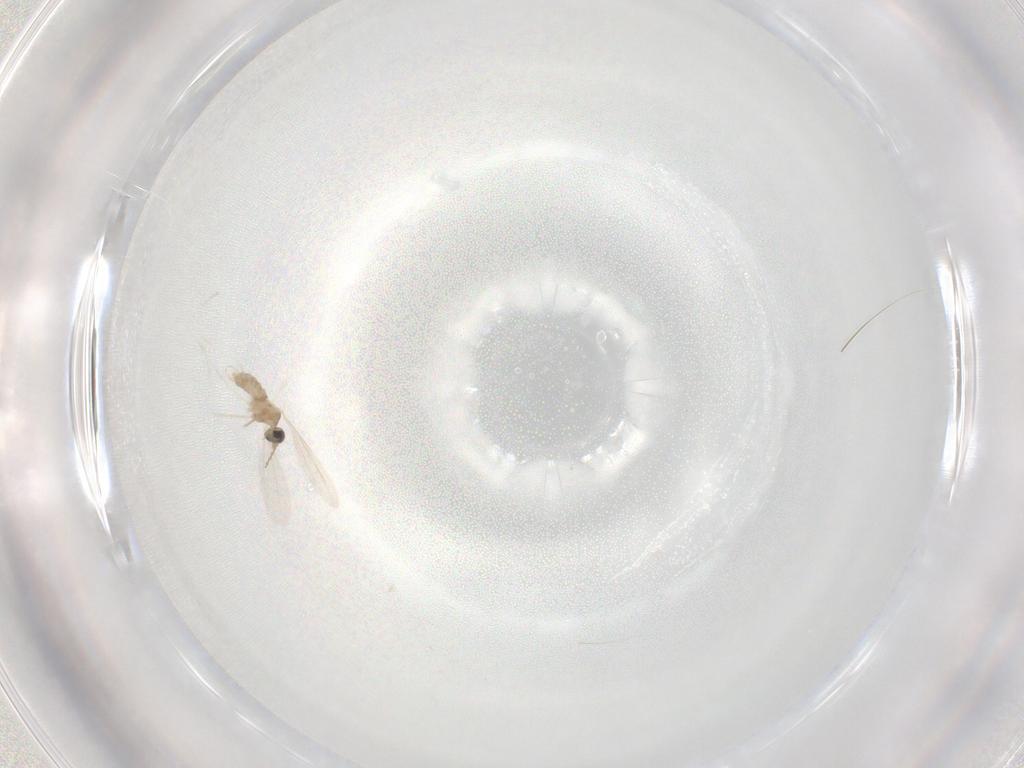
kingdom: Animalia
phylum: Arthropoda
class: Insecta
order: Diptera
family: Cecidomyiidae
